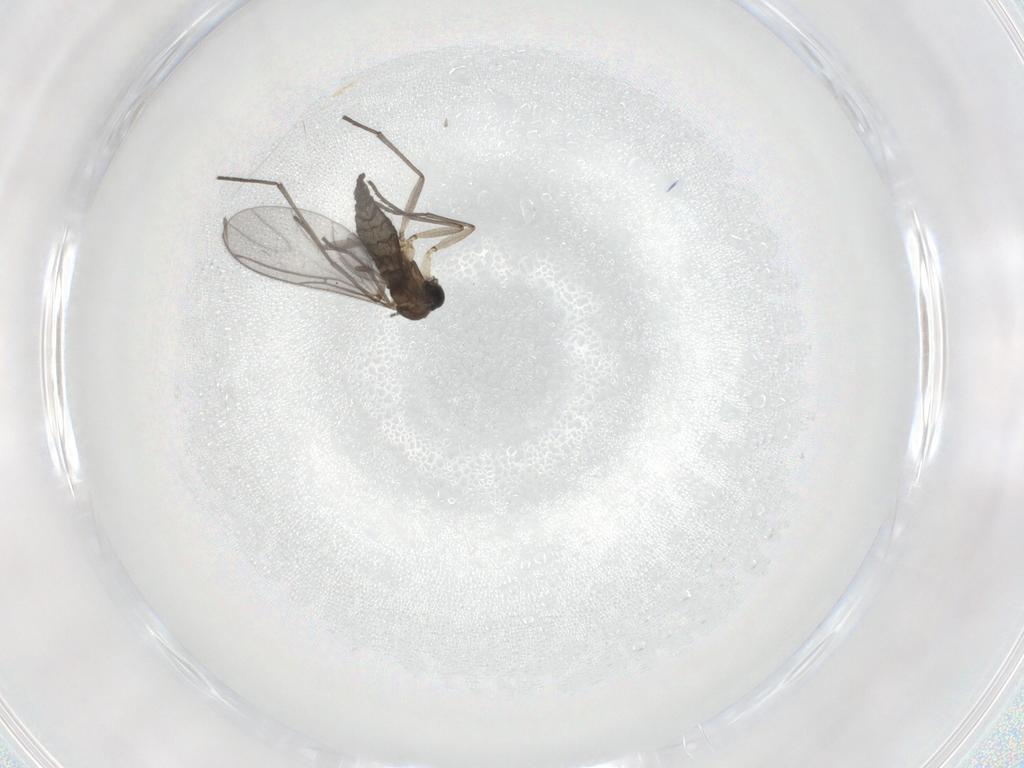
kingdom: Animalia
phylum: Arthropoda
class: Insecta
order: Diptera
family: Sciaridae
